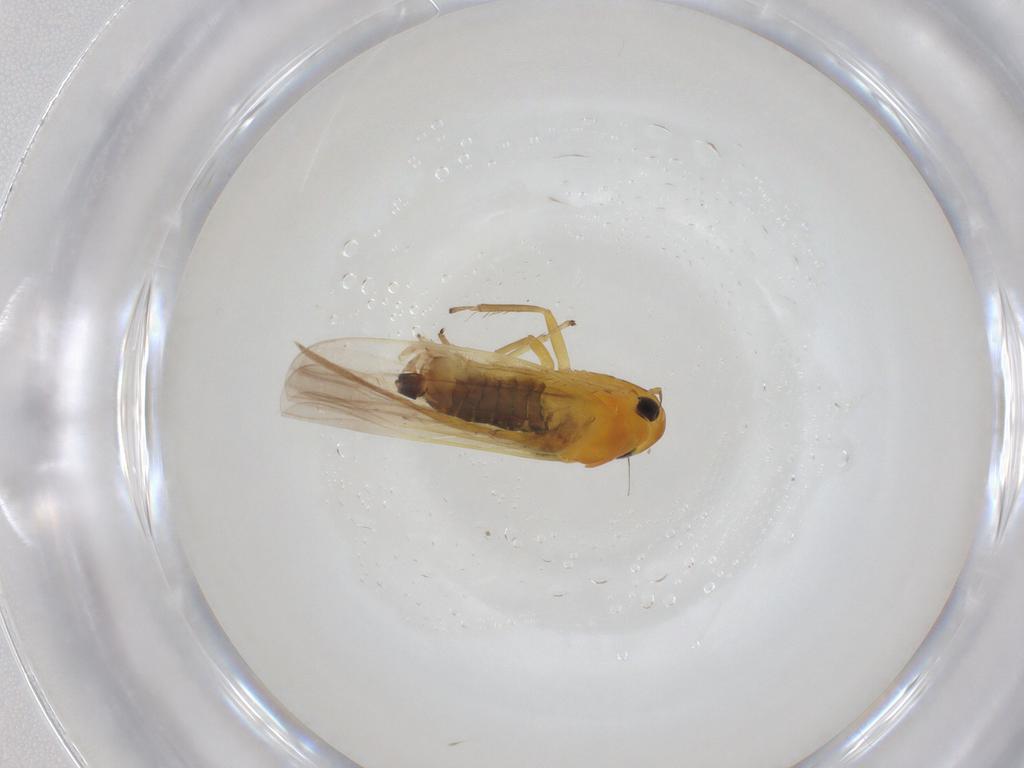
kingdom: Animalia
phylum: Arthropoda
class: Insecta
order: Hemiptera
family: Cicadellidae
